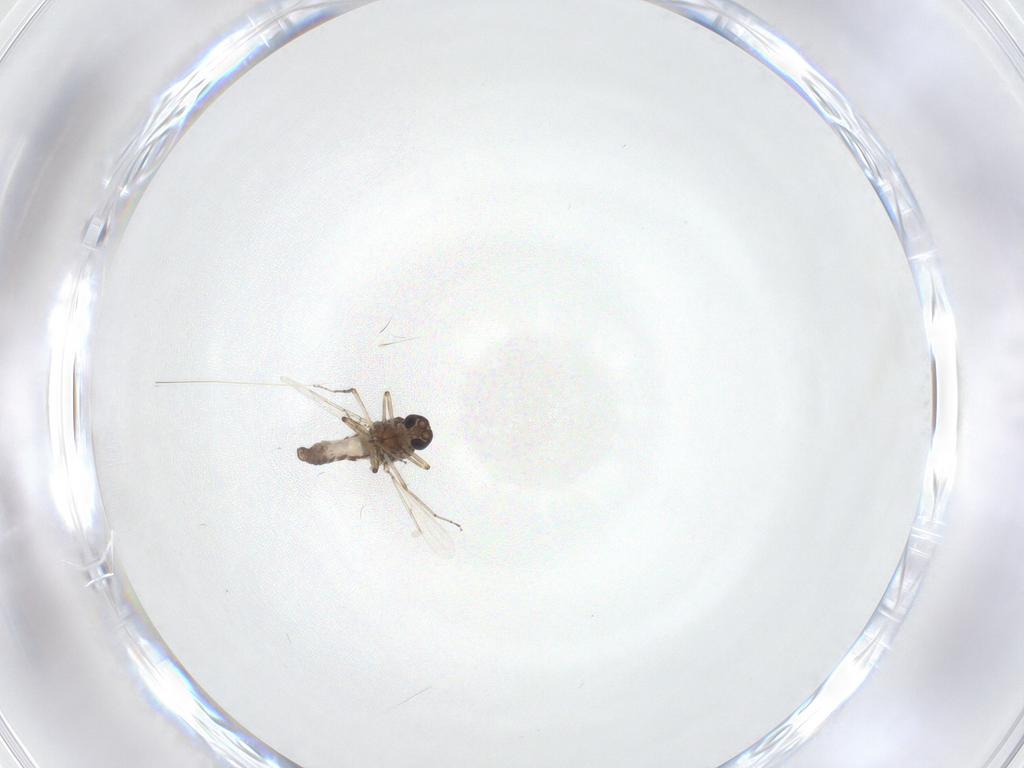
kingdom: Animalia
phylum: Arthropoda
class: Insecta
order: Diptera
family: Ceratopogonidae
